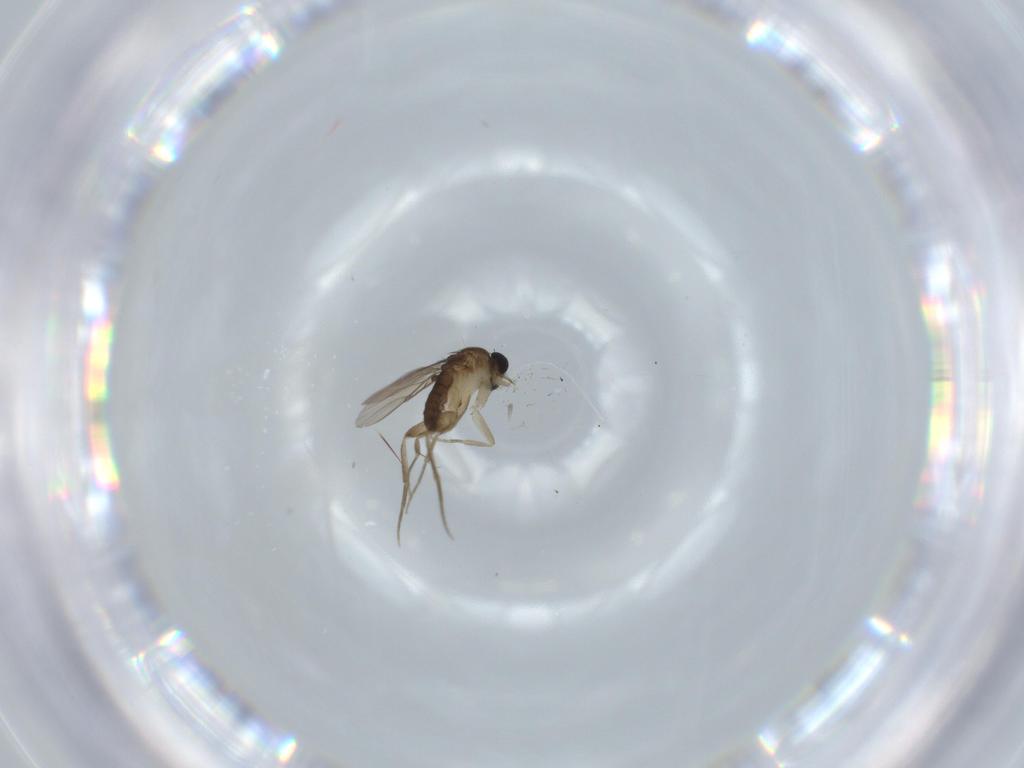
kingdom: Animalia
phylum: Arthropoda
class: Insecta
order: Diptera
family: Phoridae
